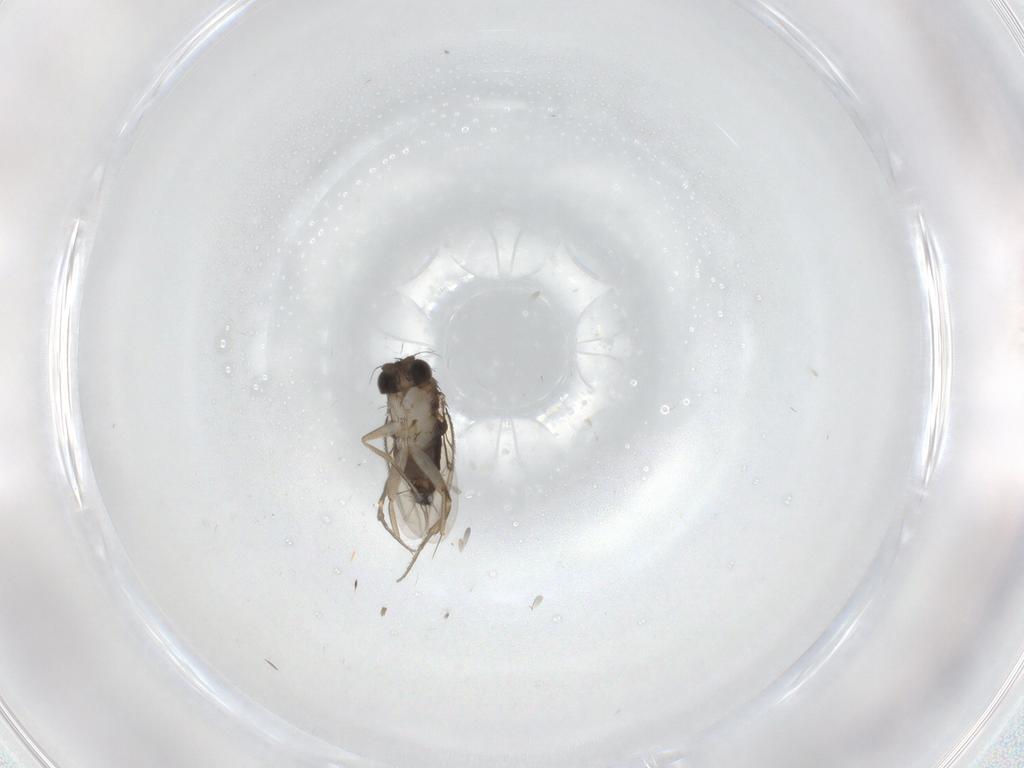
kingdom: Animalia
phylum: Arthropoda
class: Insecta
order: Diptera
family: Phoridae
